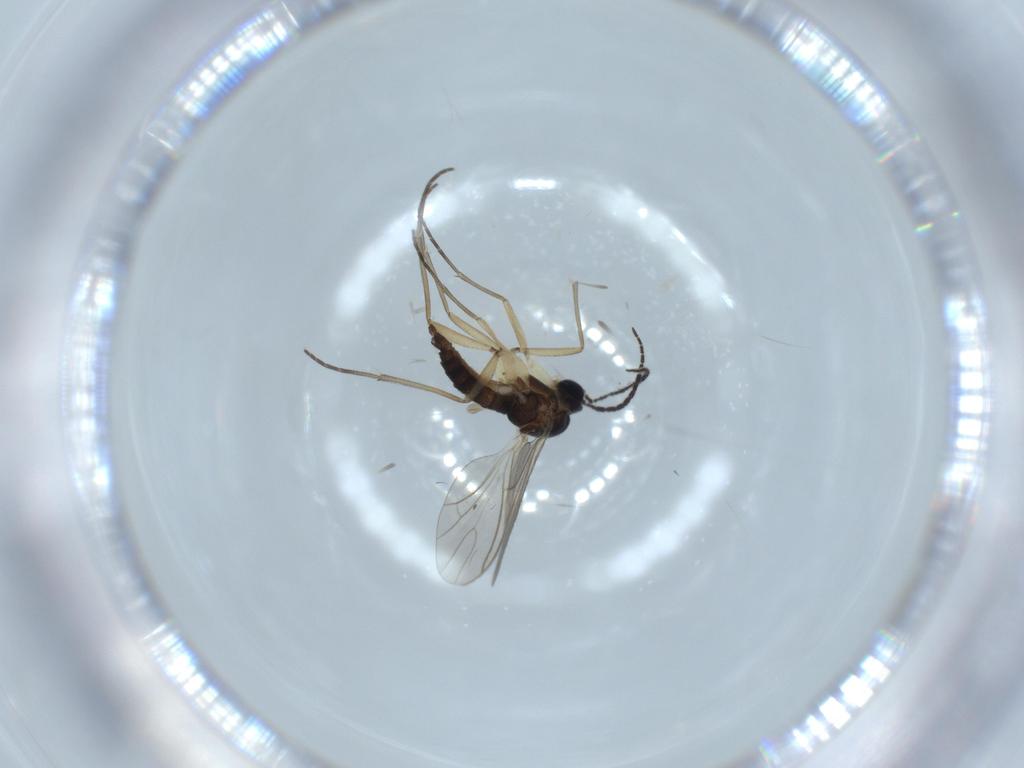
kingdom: Animalia
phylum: Arthropoda
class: Insecta
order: Diptera
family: Sciaridae
